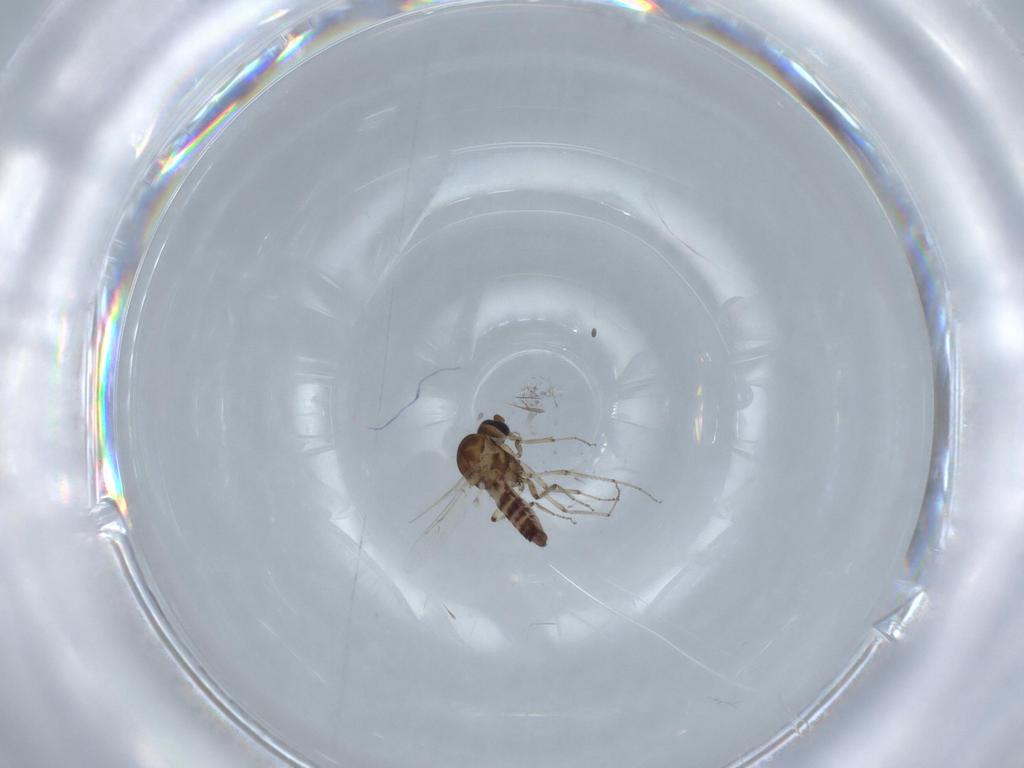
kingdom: Animalia
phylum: Arthropoda
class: Insecta
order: Diptera
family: Ceratopogonidae
